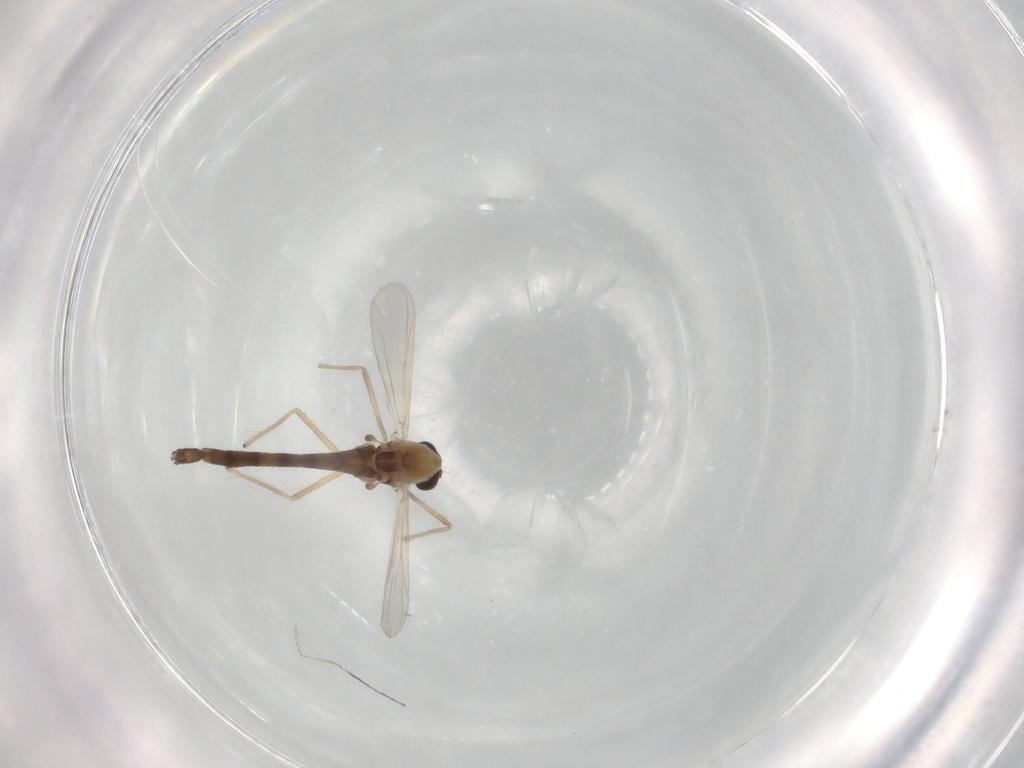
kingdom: Animalia
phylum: Arthropoda
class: Insecta
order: Diptera
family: Chironomidae
